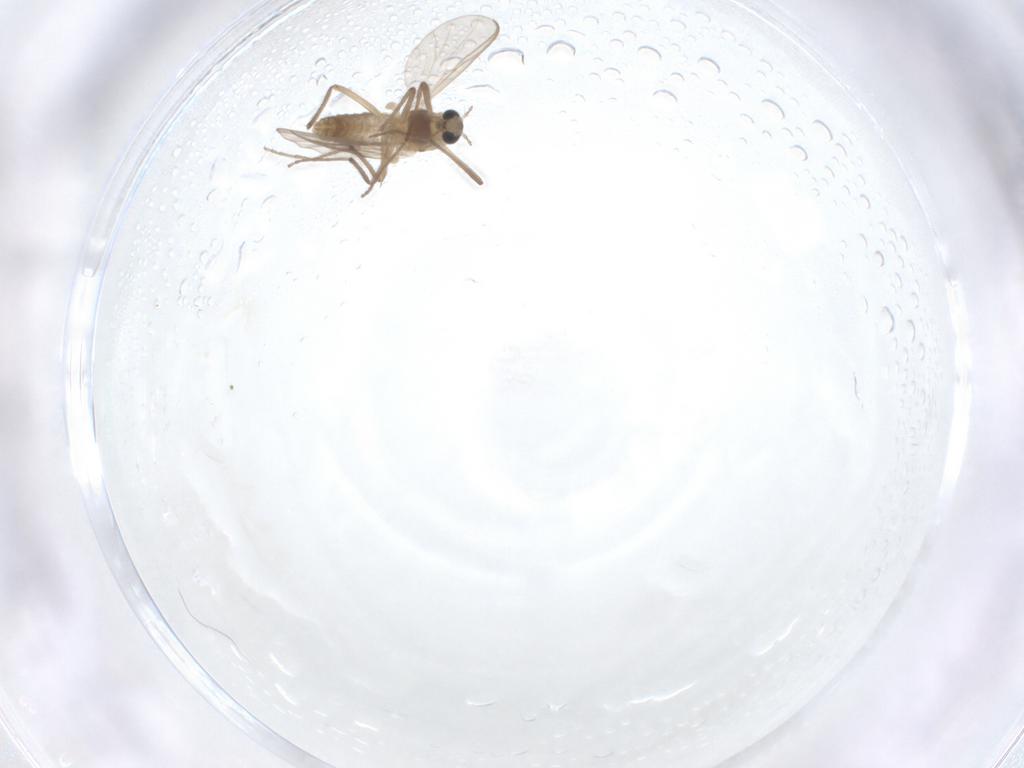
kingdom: Animalia
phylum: Arthropoda
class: Insecta
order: Diptera
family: Chironomidae
